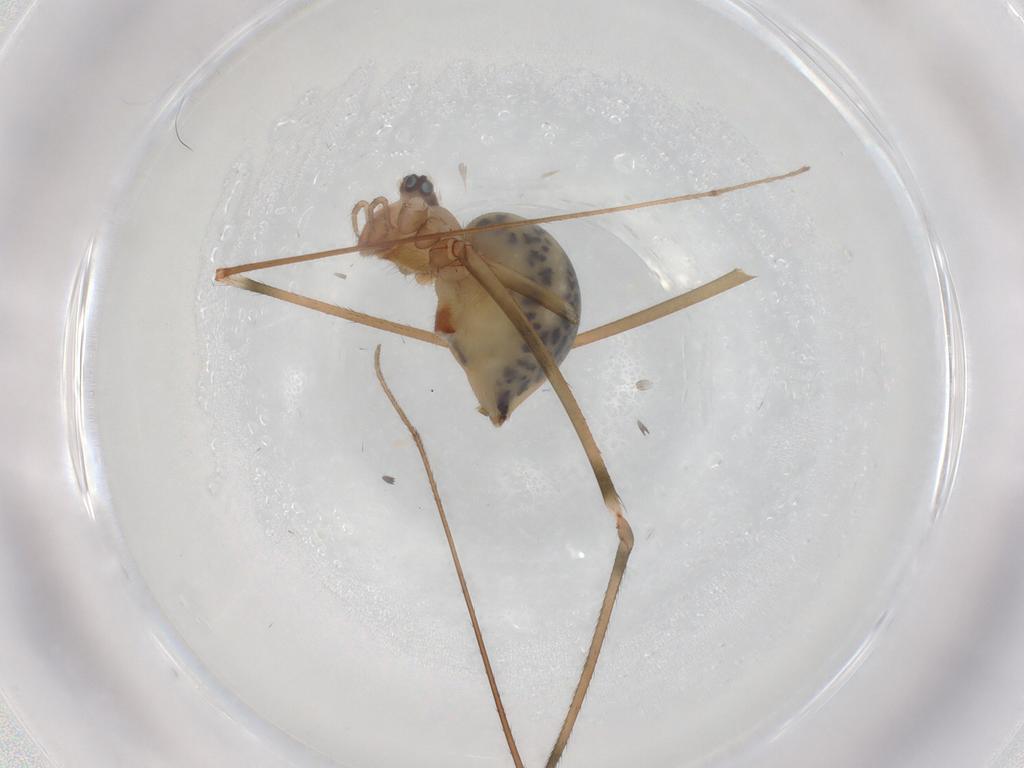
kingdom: Animalia
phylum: Arthropoda
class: Arachnida
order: Araneae
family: Pholcidae
